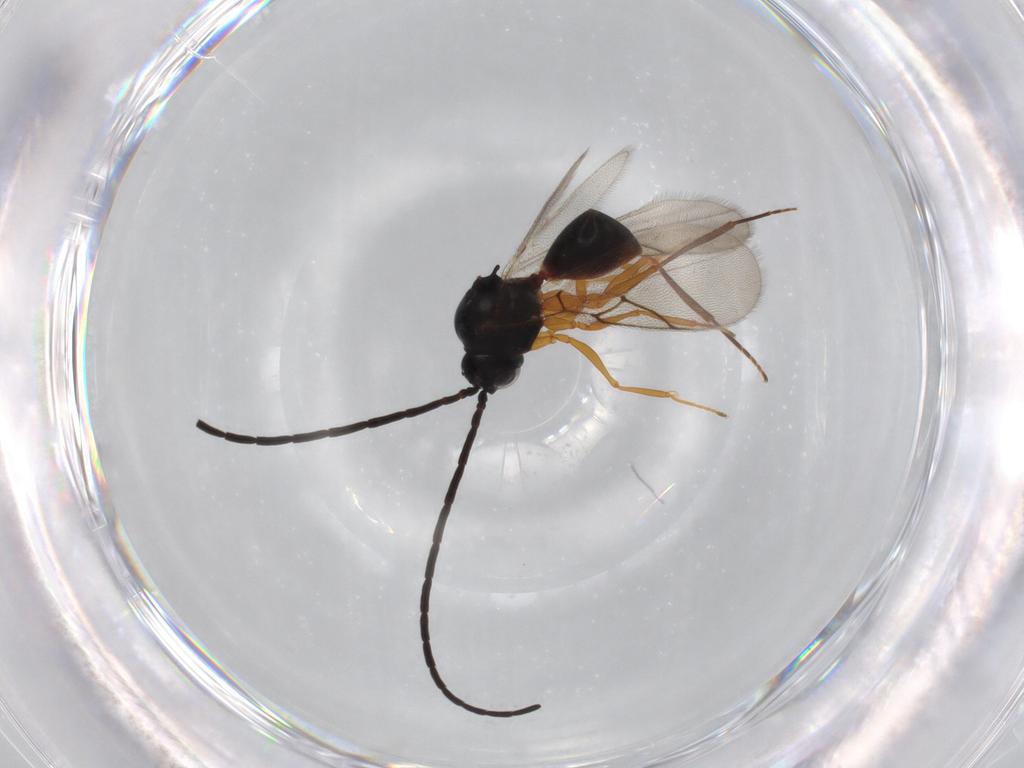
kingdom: Animalia
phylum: Arthropoda
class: Insecta
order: Hymenoptera
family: Figitidae
